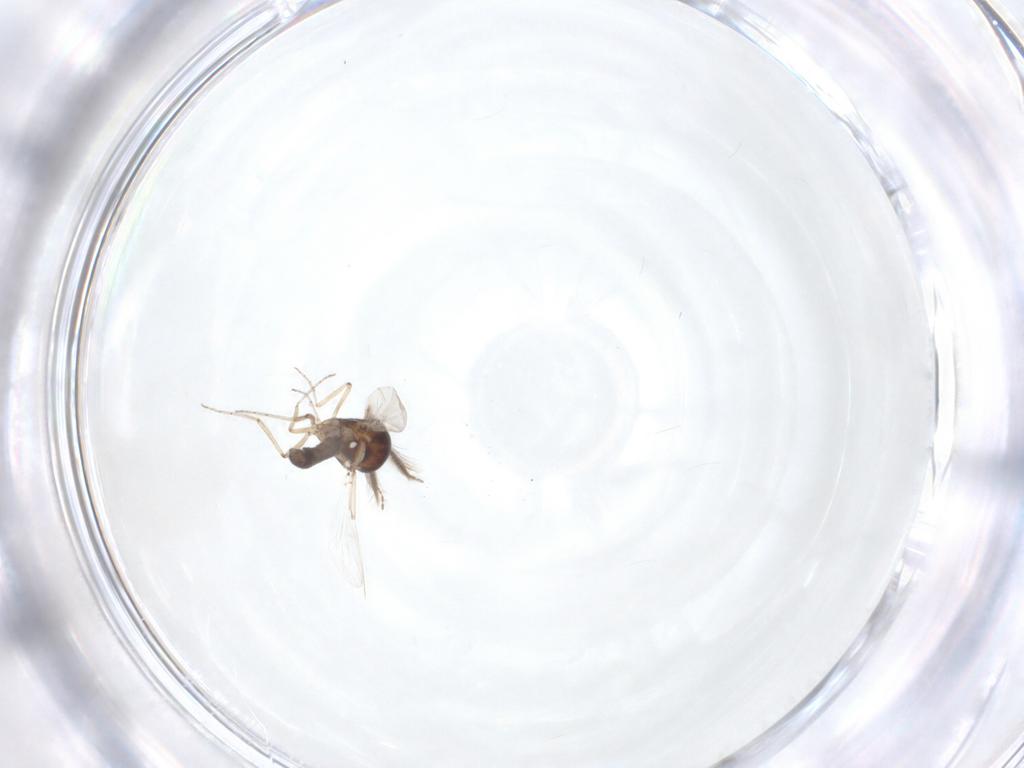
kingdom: Animalia
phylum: Arthropoda
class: Insecta
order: Diptera
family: Ceratopogonidae
